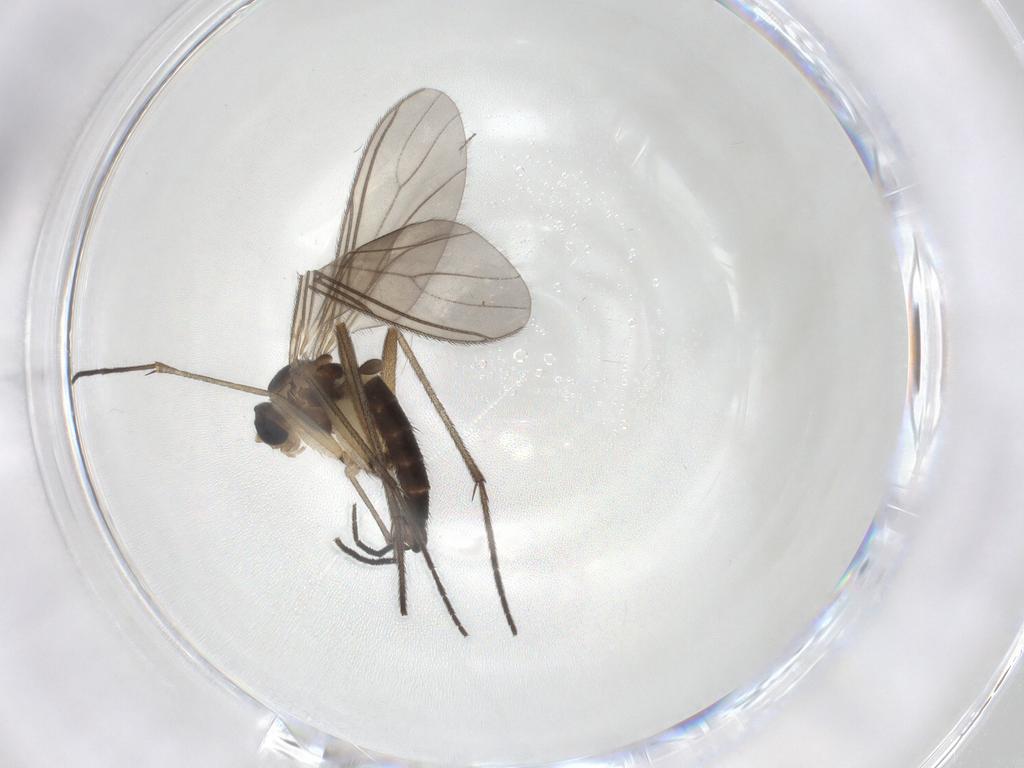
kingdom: Animalia
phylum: Arthropoda
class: Insecta
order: Diptera
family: Sciaridae
